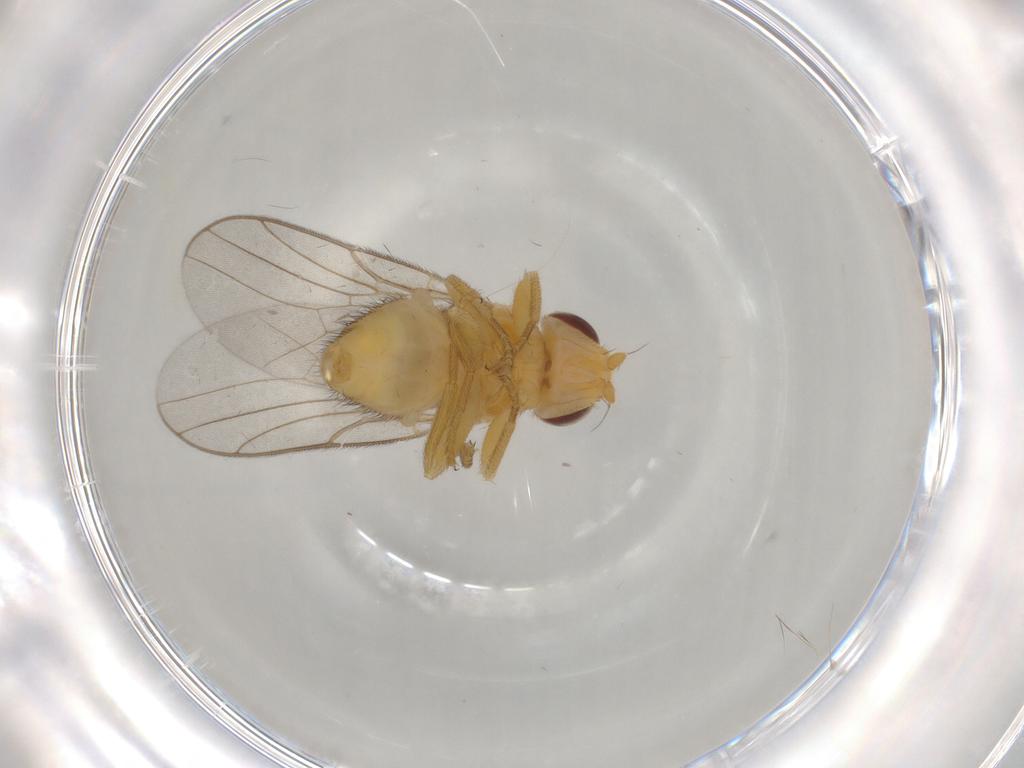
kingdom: Animalia
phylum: Arthropoda
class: Insecta
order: Diptera
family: Chloropidae
